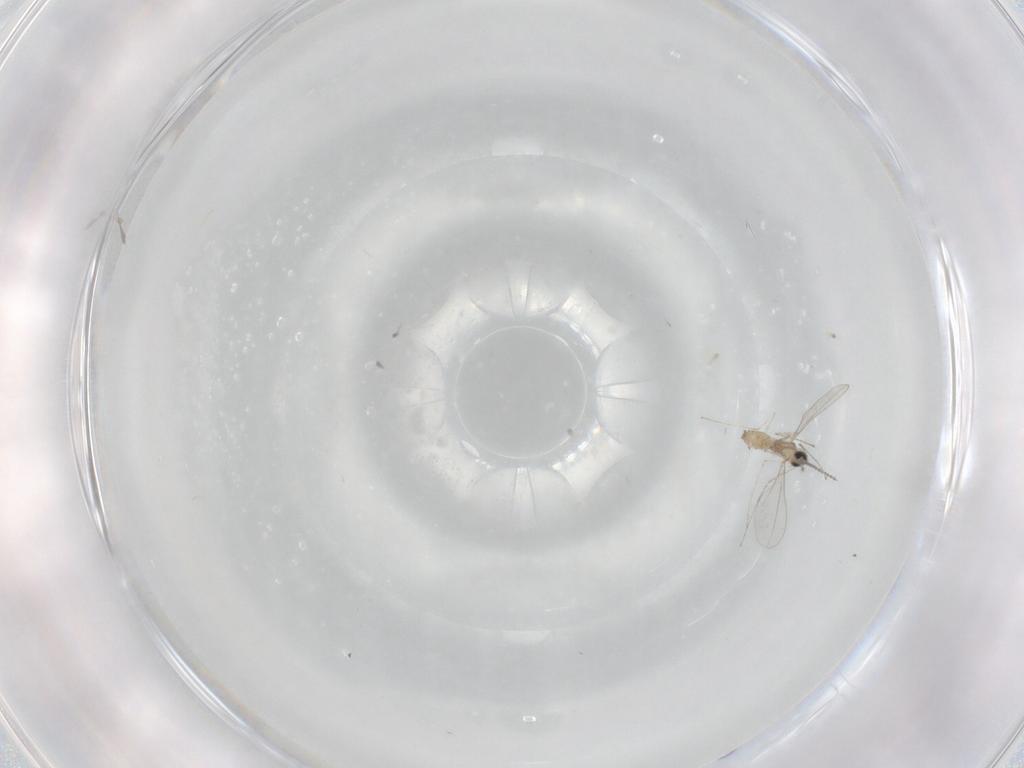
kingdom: Animalia
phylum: Arthropoda
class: Insecta
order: Diptera
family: Cecidomyiidae
